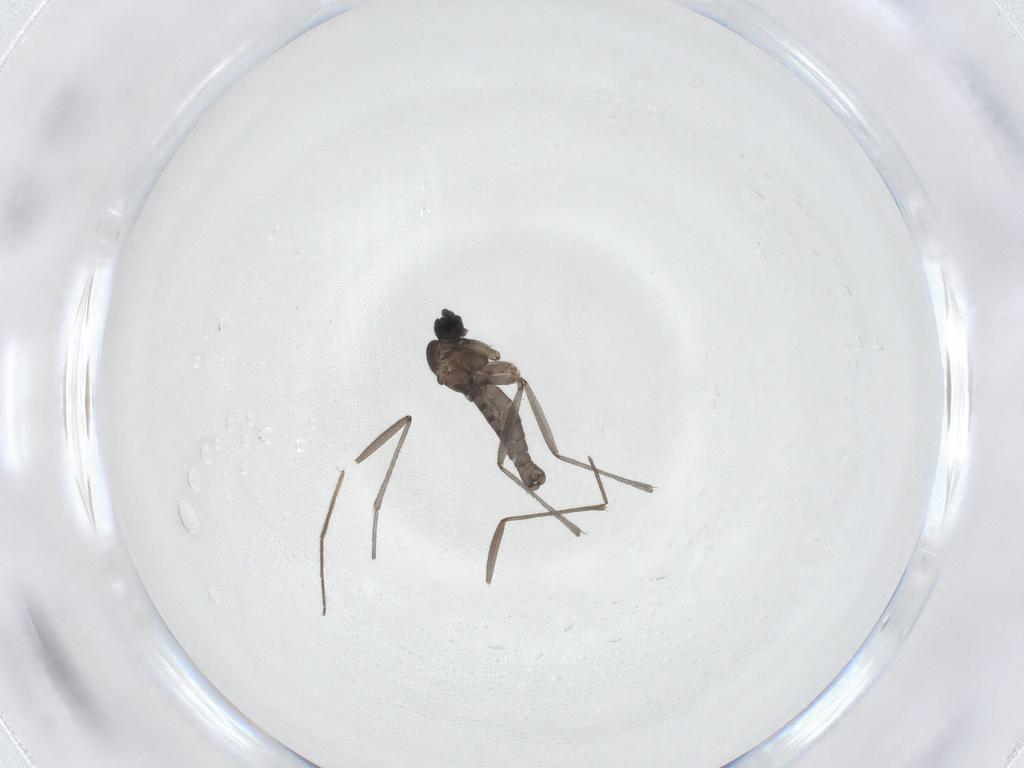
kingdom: Animalia
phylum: Arthropoda
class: Insecta
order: Diptera
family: Sciaridae
